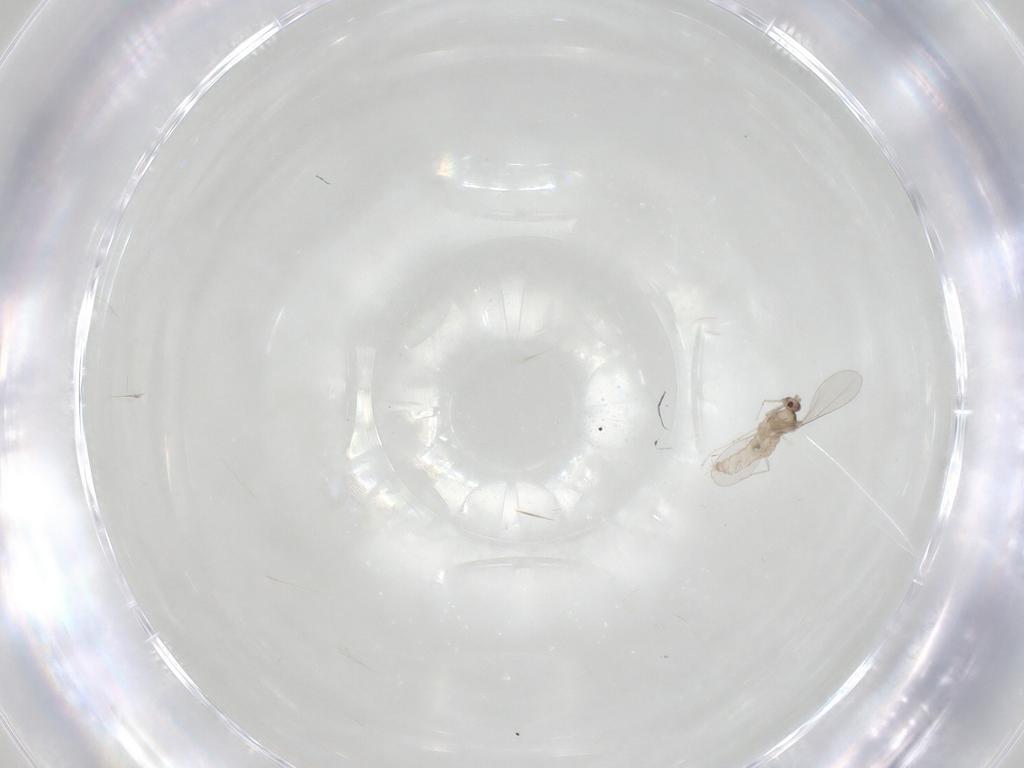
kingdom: Animalia
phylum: Arthropoda
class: Insecta
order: Diptera
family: Cecidomyiidae
